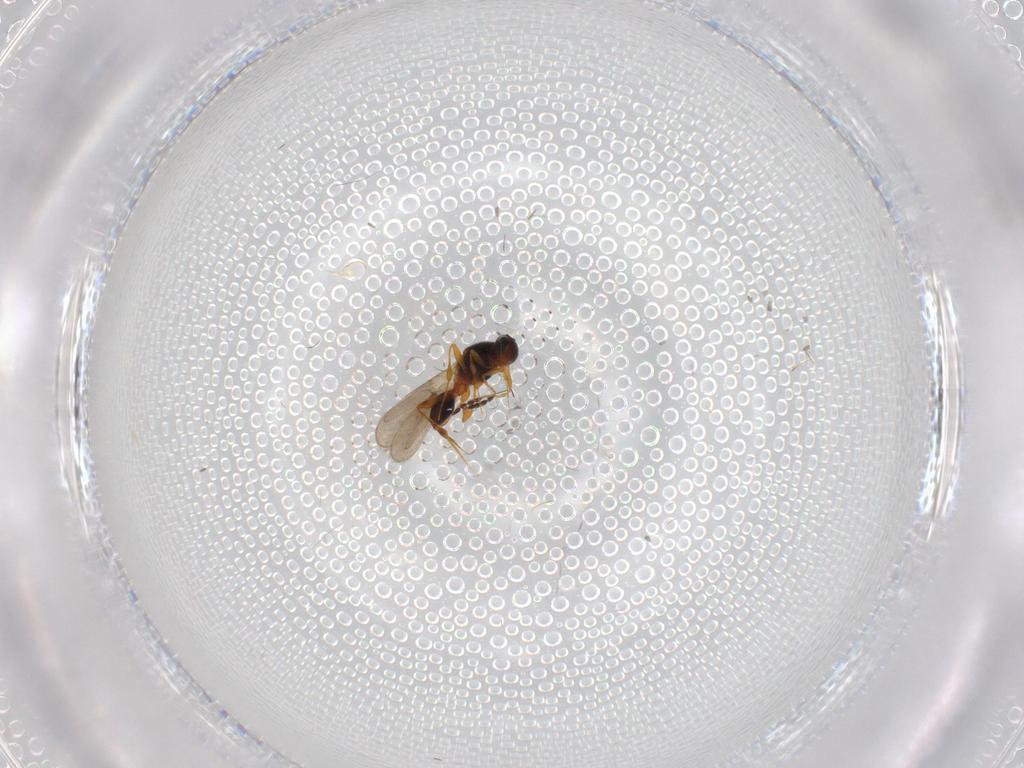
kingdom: Animalia
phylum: Arthropoda
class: Insecta
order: Hymenoptera
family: Platygastridae
